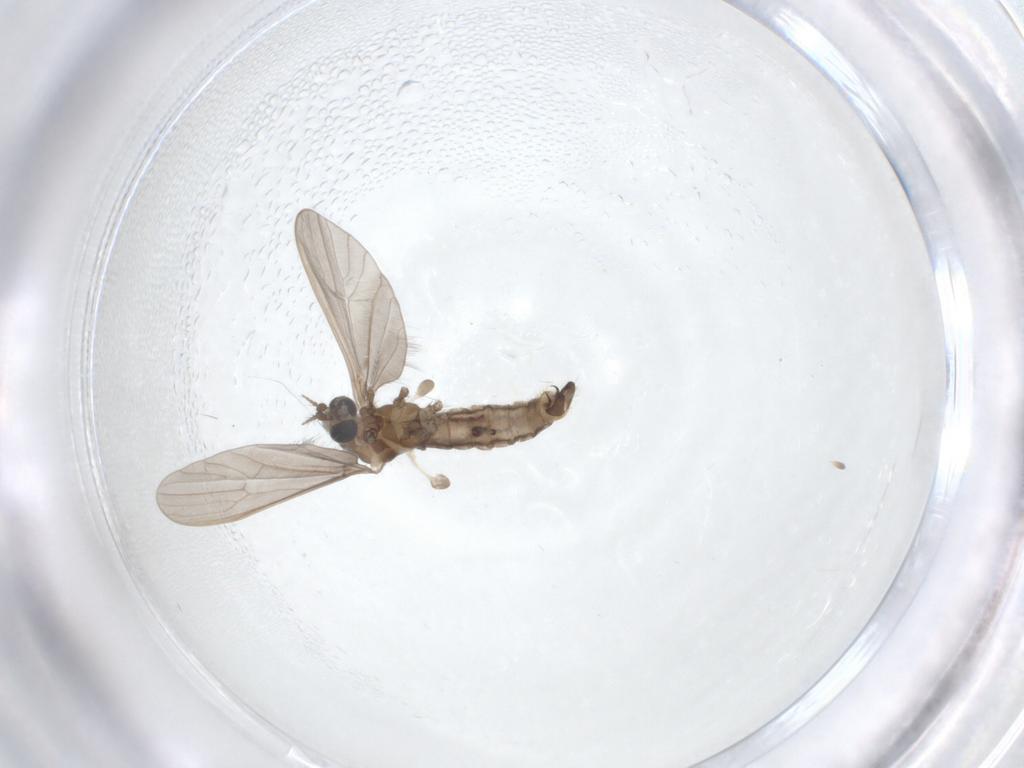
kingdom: Animalia
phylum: Arthropoda
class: Insecta
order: Diptera
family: Limoniidae
